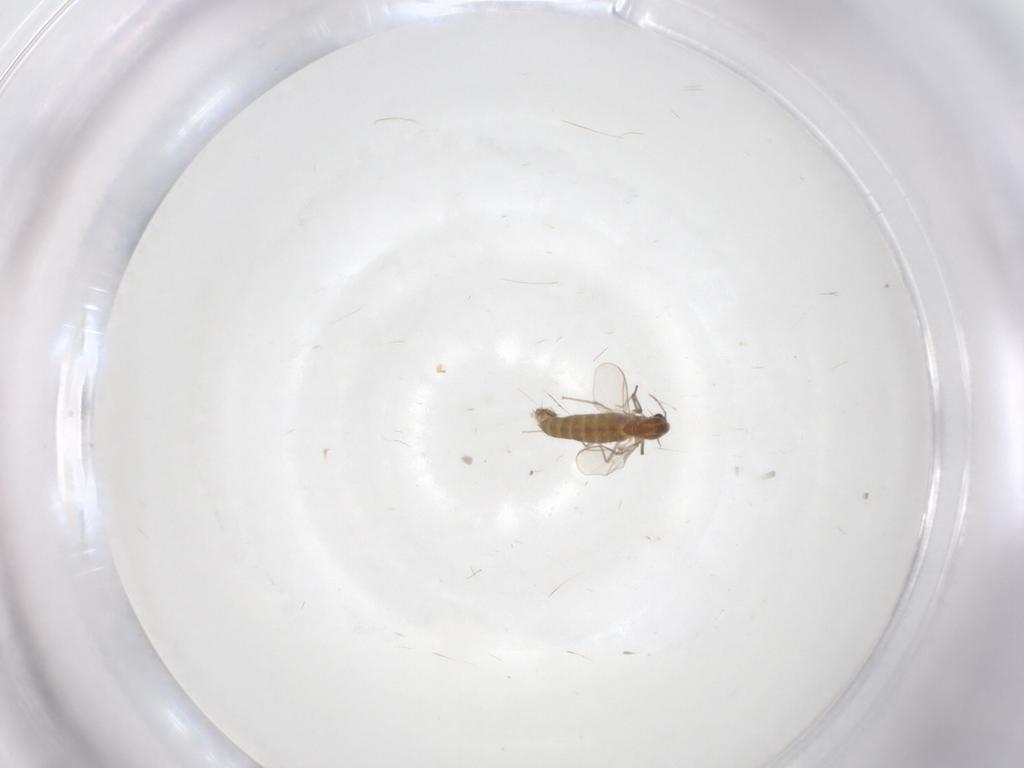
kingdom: Animalia
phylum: Arthropoda
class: Insecta
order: Diptera
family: Chironomidae
